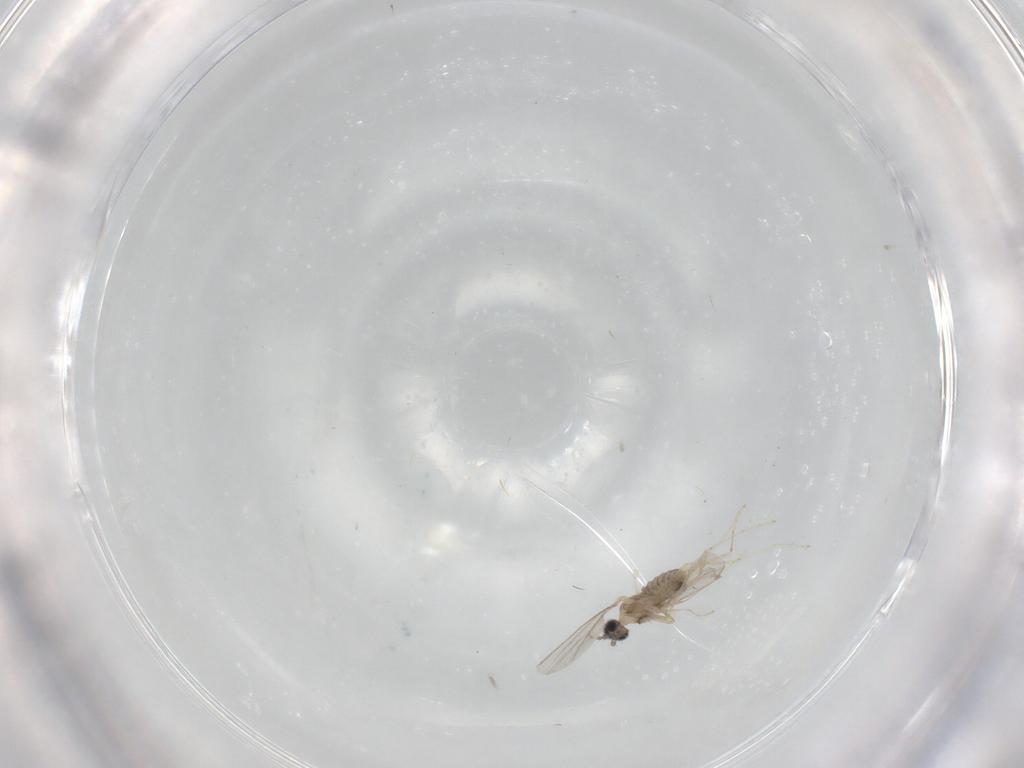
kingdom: Animalia
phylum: Arthropoda
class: Insecta
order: Diptera
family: Cecidomyiidae
